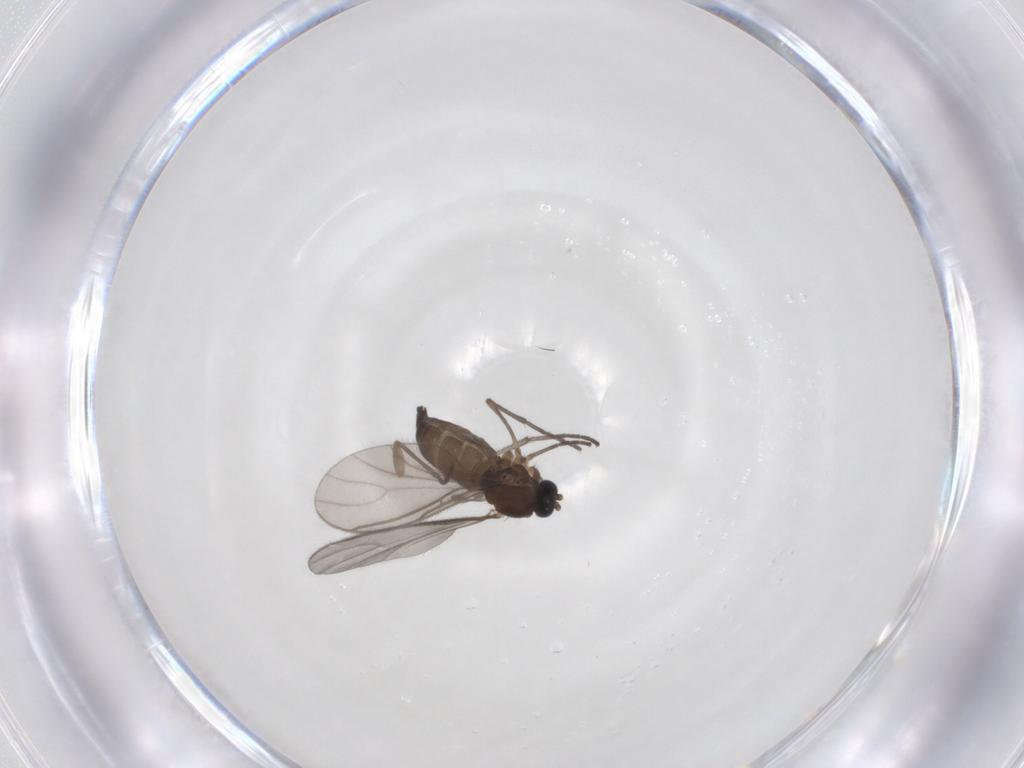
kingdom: Animalia
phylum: Arthropoda
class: Insecta
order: Diptera
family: Sciaridae
